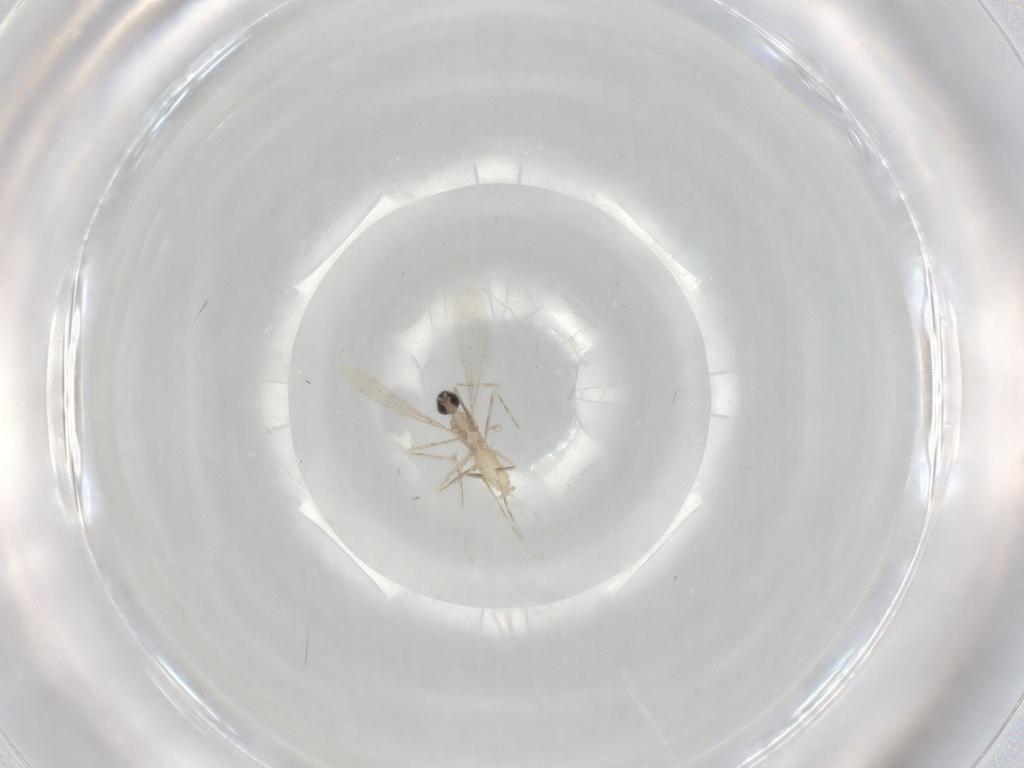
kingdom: Animalia
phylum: Arthropoda
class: Insecta
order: Diptera
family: Cecidomyiidae
